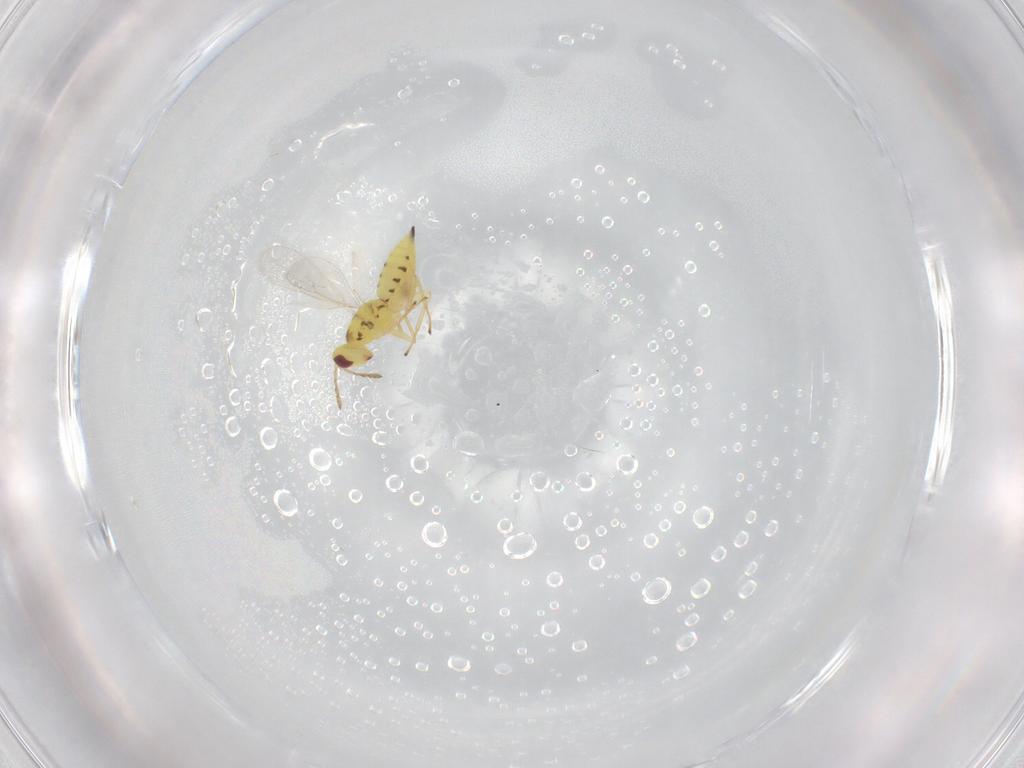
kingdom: Animalia
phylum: Arthropoda
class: Insecta
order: Hymenoptera
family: Eulophidae
